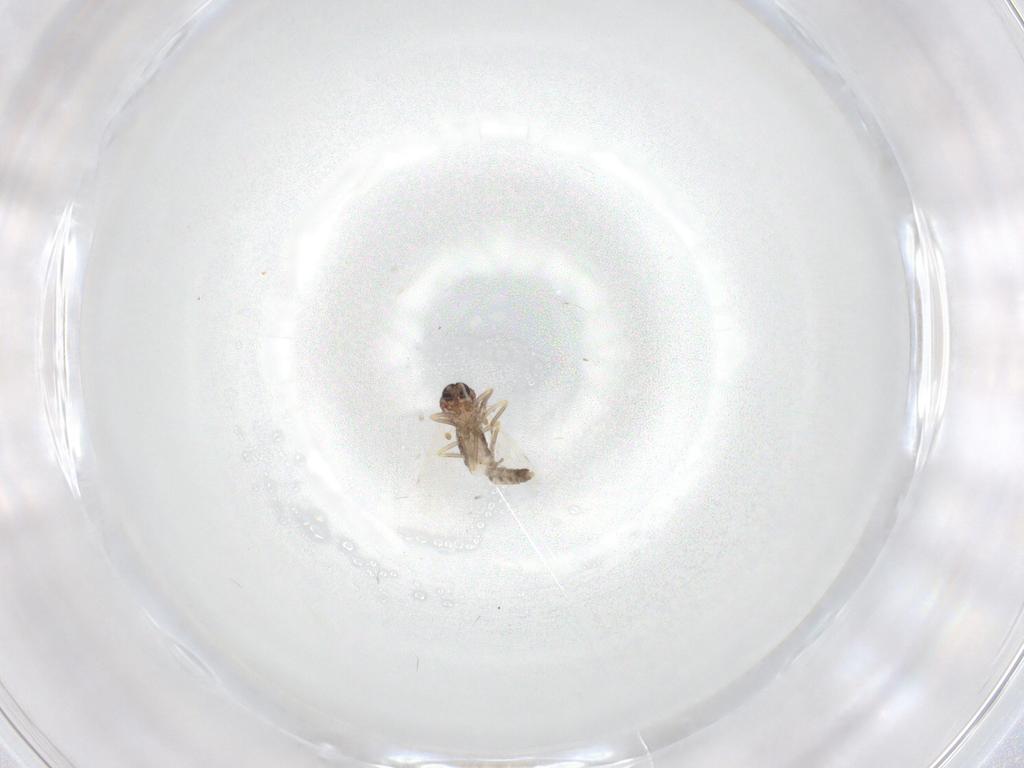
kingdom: Animalia
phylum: Arthropoda
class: Insecta
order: Diptera
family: Ceratopogonidae
